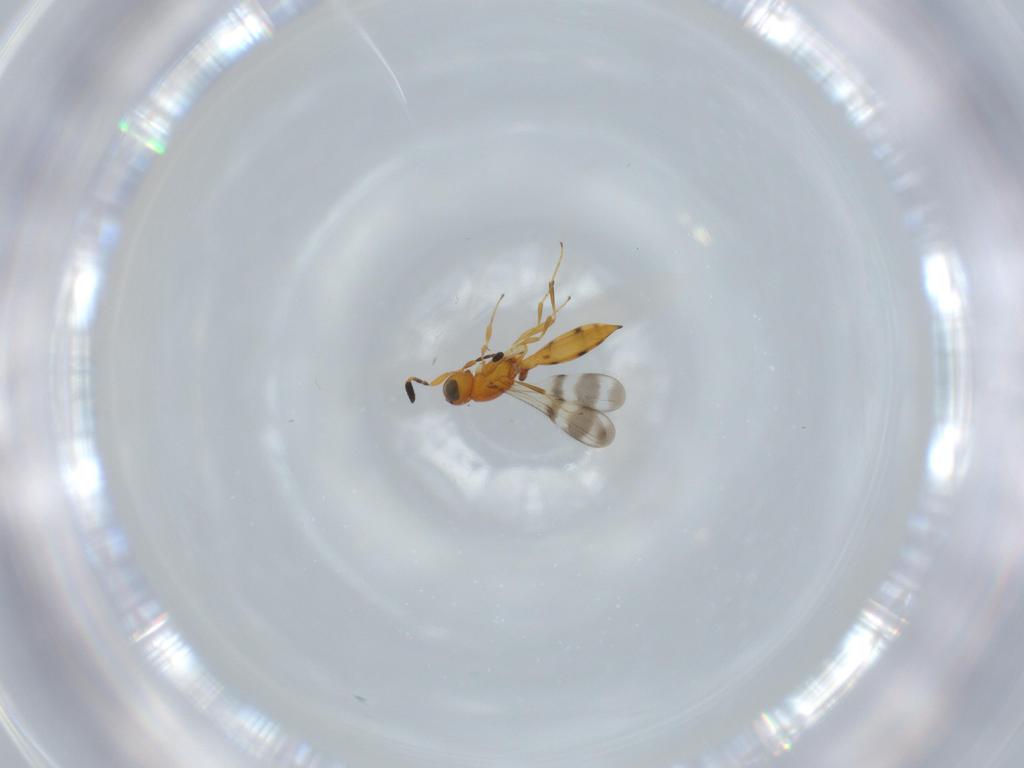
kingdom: Animalia
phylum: Arthropoda
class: Insecta
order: Hymenoptera
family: Scelionidae
